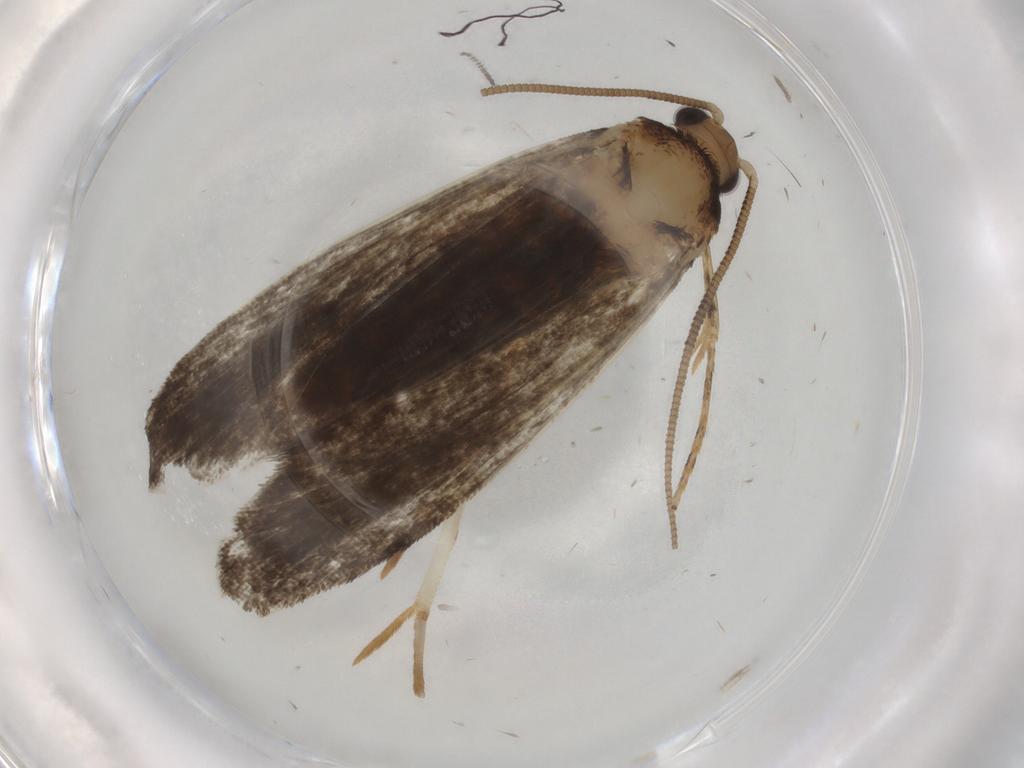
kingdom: Animalia
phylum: Arthropoda
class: Insecta
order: Lepidoptera
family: Tineidae
